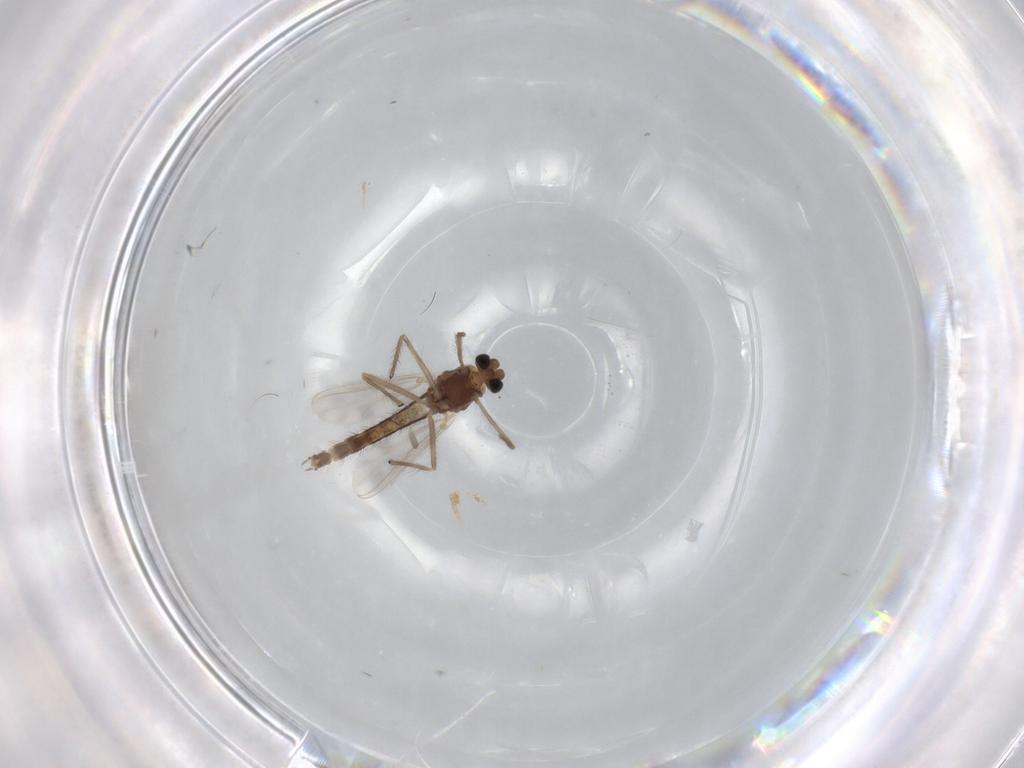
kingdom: Animalia
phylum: Arthropoda
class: Insecta
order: Diptera
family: Chironomidae
